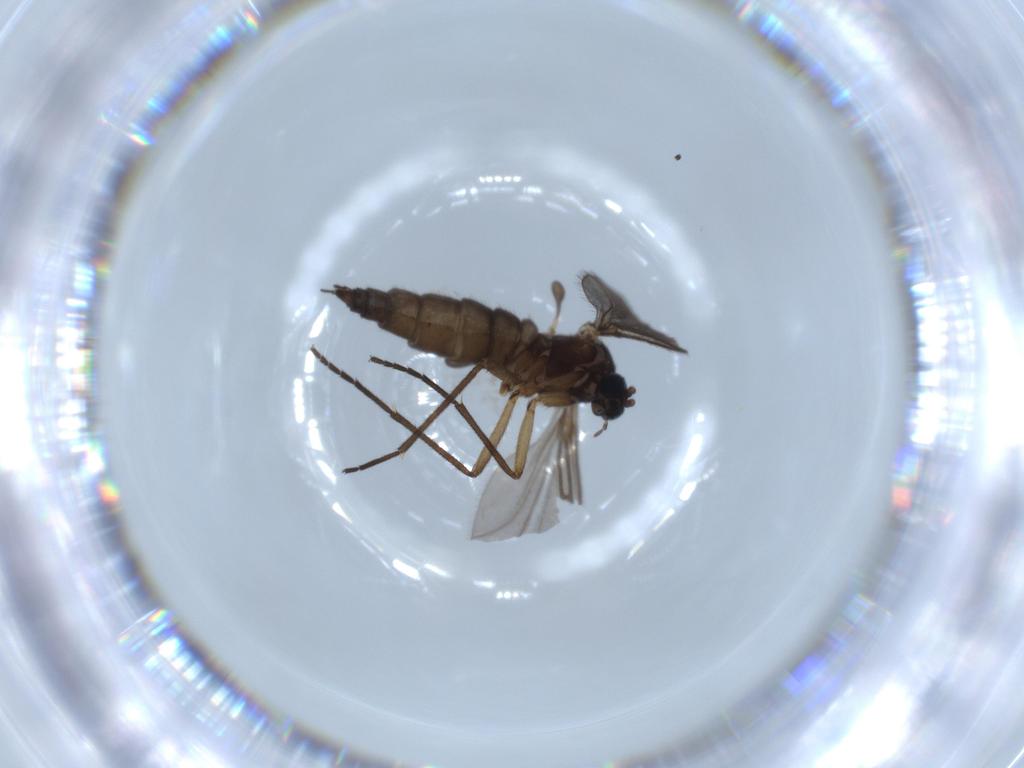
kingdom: Animalia
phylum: Arthropoda
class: Insecta
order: Diptera
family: Sciaridae
